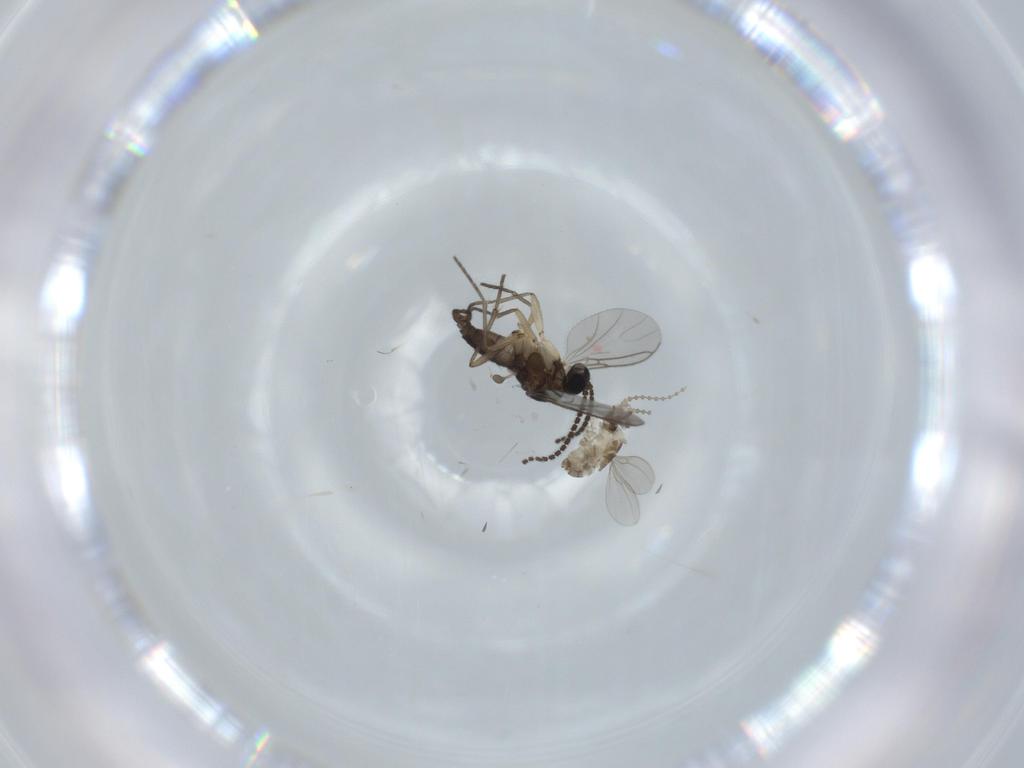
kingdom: Animalia
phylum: Arthropoda
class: Insecta
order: Diptera
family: Cecidomyiidae
